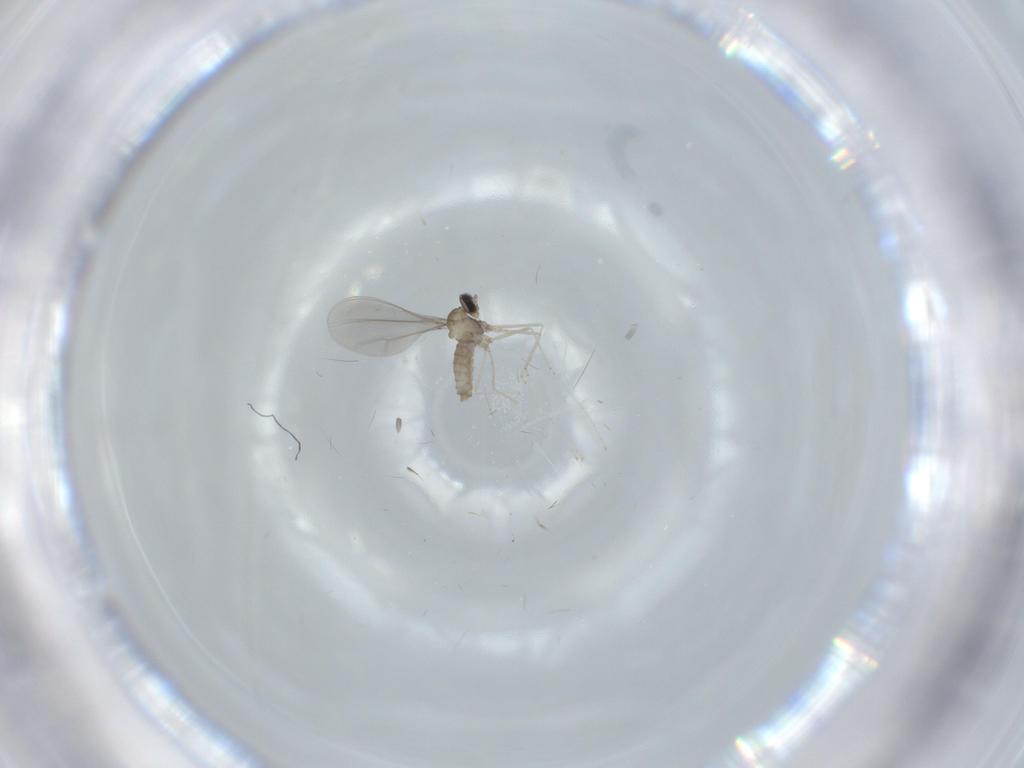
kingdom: Animalia
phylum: Arthropoda
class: Insecta
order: Diptera
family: Cecidomyiidae
